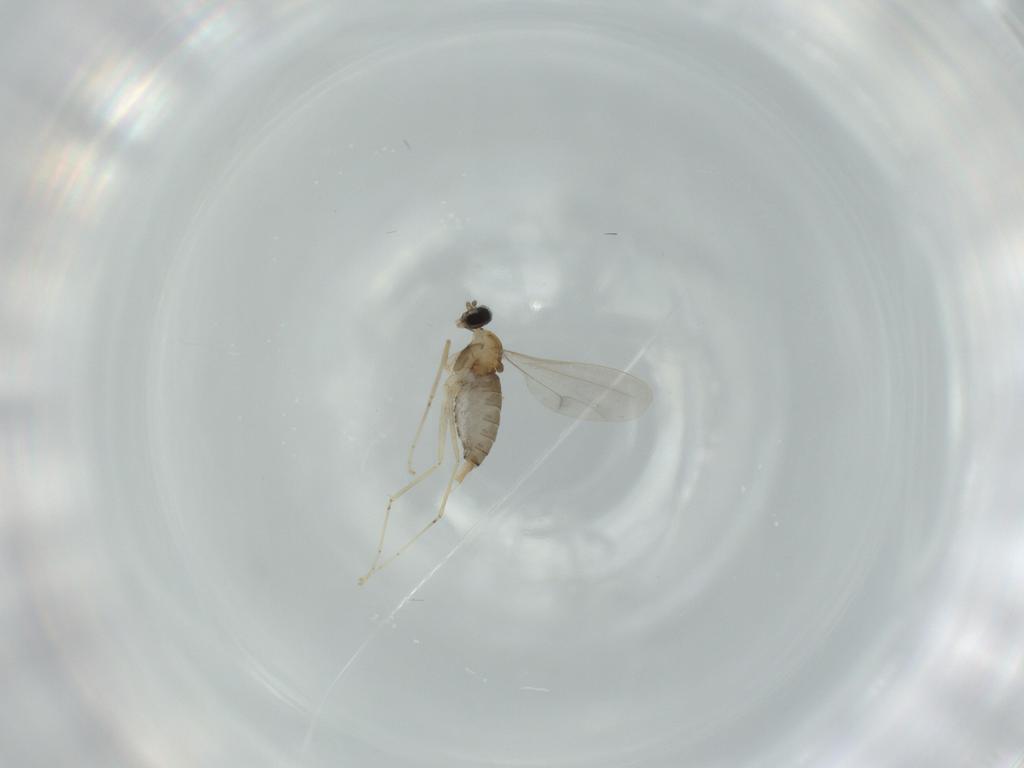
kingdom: Animalia
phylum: Arthropoda
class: Insecta
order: Diptera
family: Cecidomyiidae
